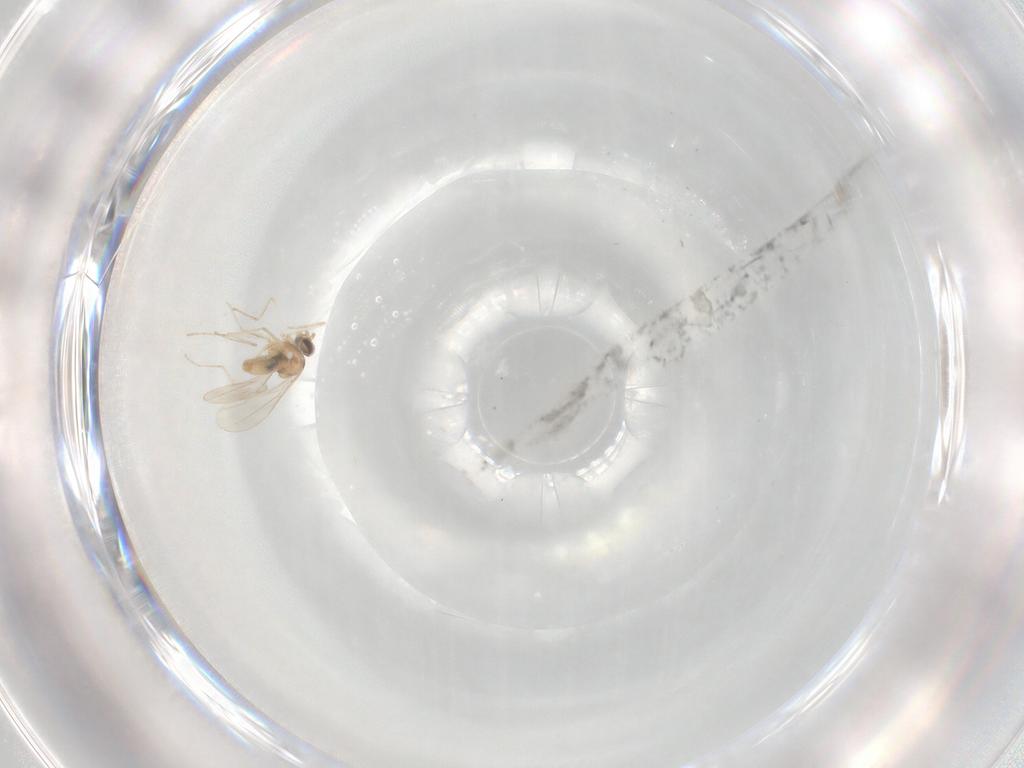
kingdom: Animalia
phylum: Arthropoda
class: Insecta
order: Diptera
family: Cecidomyiidae
